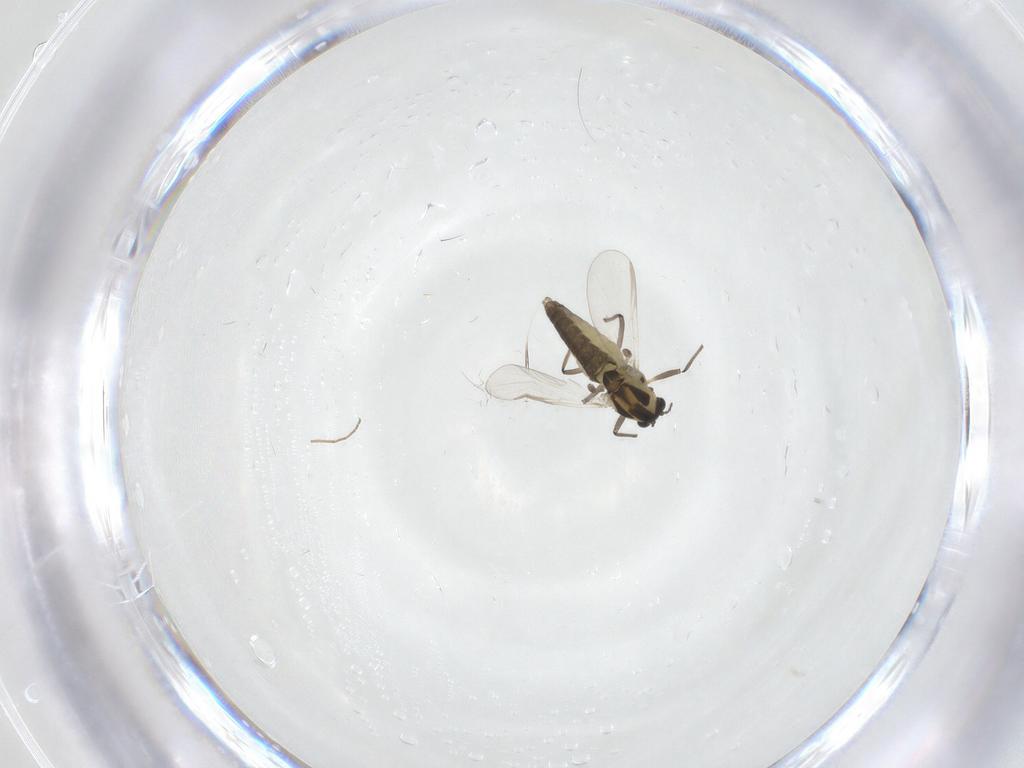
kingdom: Animalia
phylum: Arthropoda
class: Insecta
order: Diptera
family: Chironomidae
